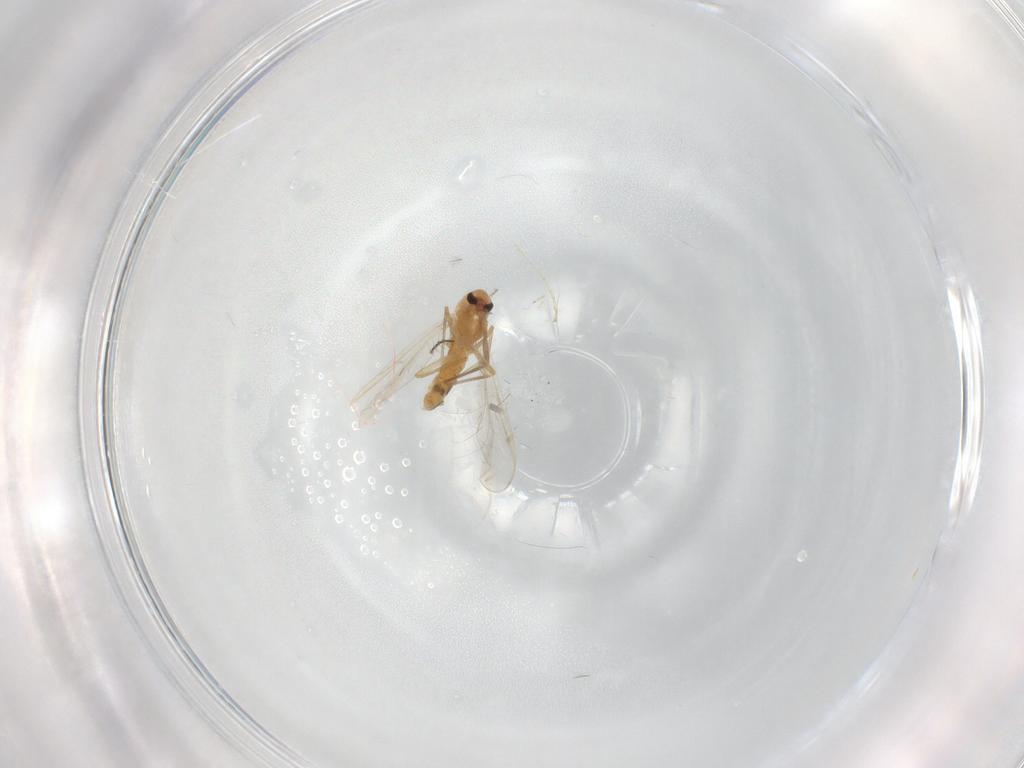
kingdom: Animalia
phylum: Arthropoda
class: Insecta
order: Diptera
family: Chironomidae
